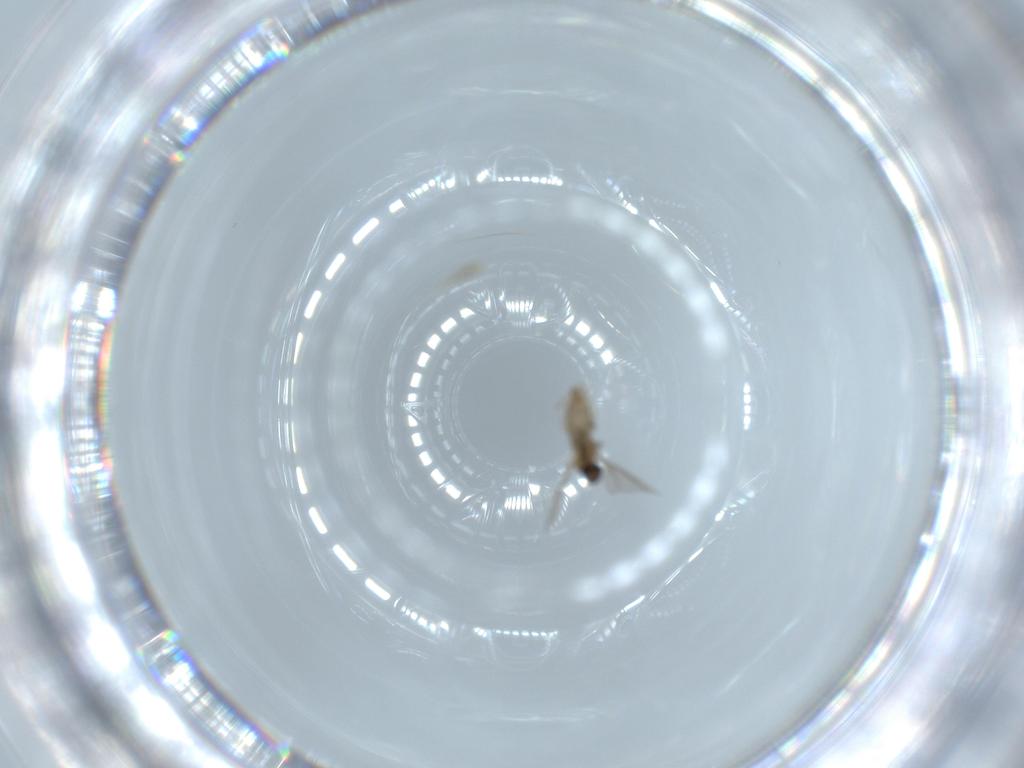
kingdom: Animalia
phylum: Arthropoda
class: Insecta
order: Diptera
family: Cecidomyiidae
